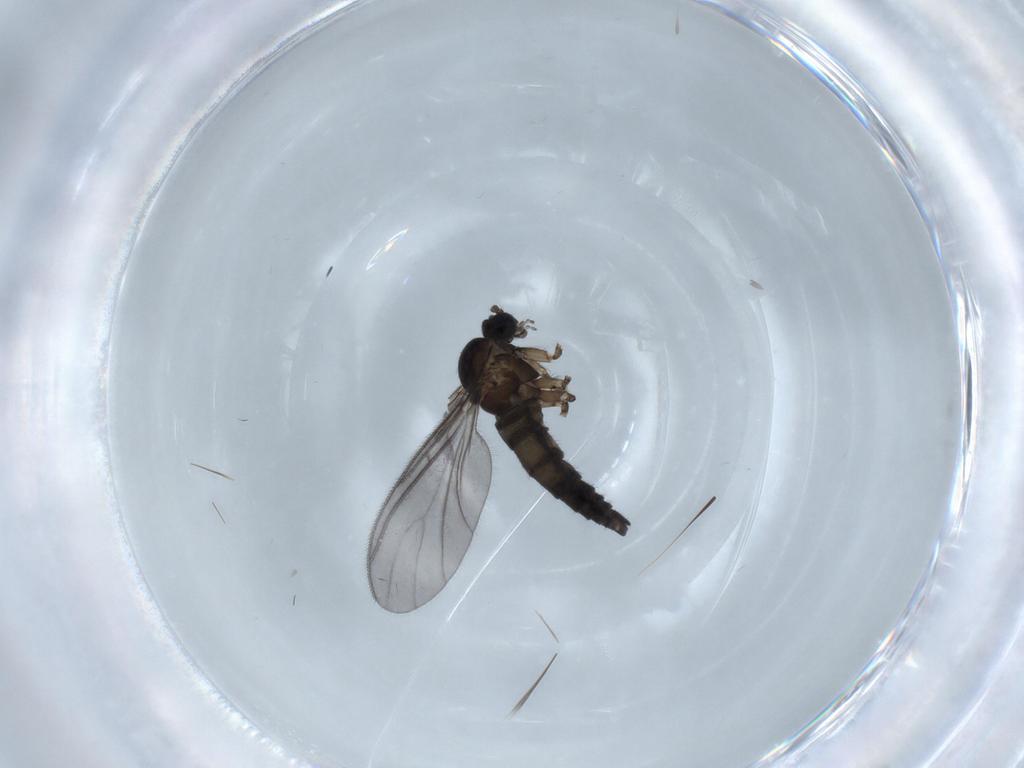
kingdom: Animalia
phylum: Arthropoda
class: Insecta
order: Diptera
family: Sciaridae
